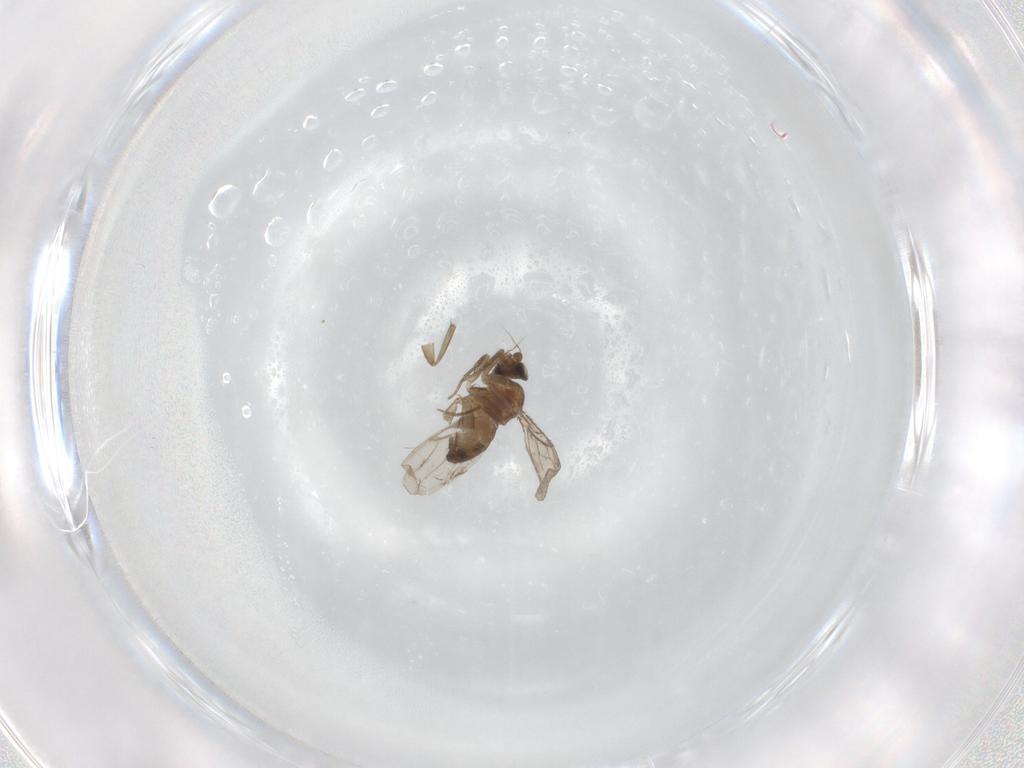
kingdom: Animalia
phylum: Arthropoda
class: Insecta
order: Diptera
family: Phoridae
